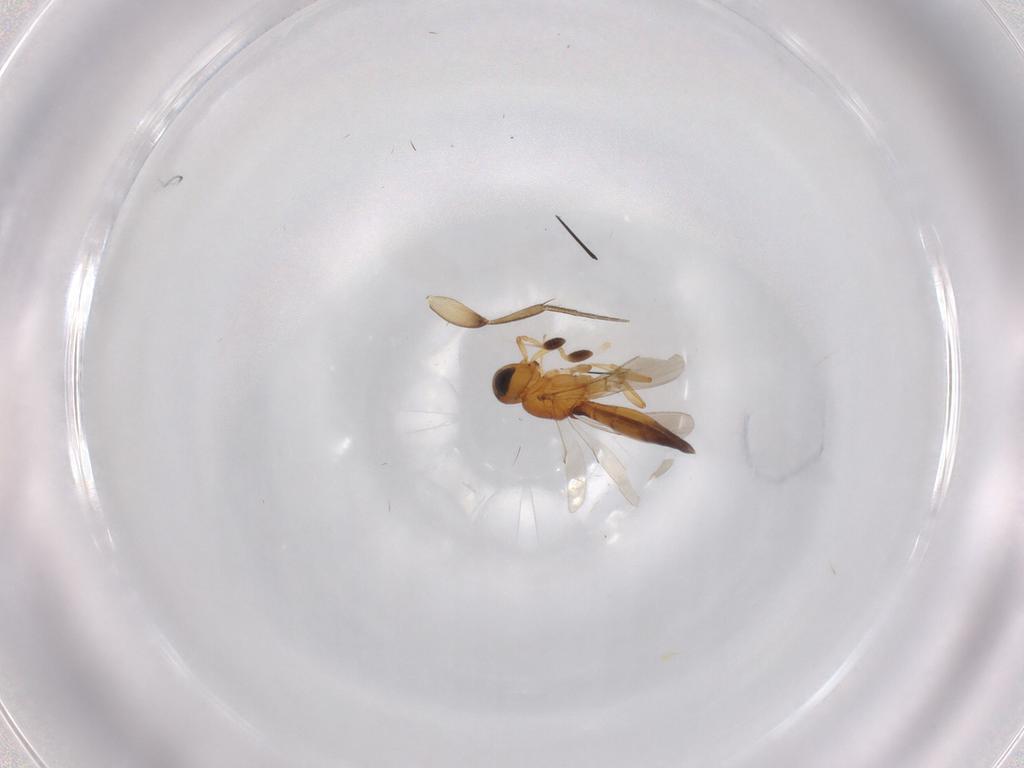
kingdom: Animalia
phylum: Arthropoda
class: Insecta
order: Hymenoptera
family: Scelionidae
